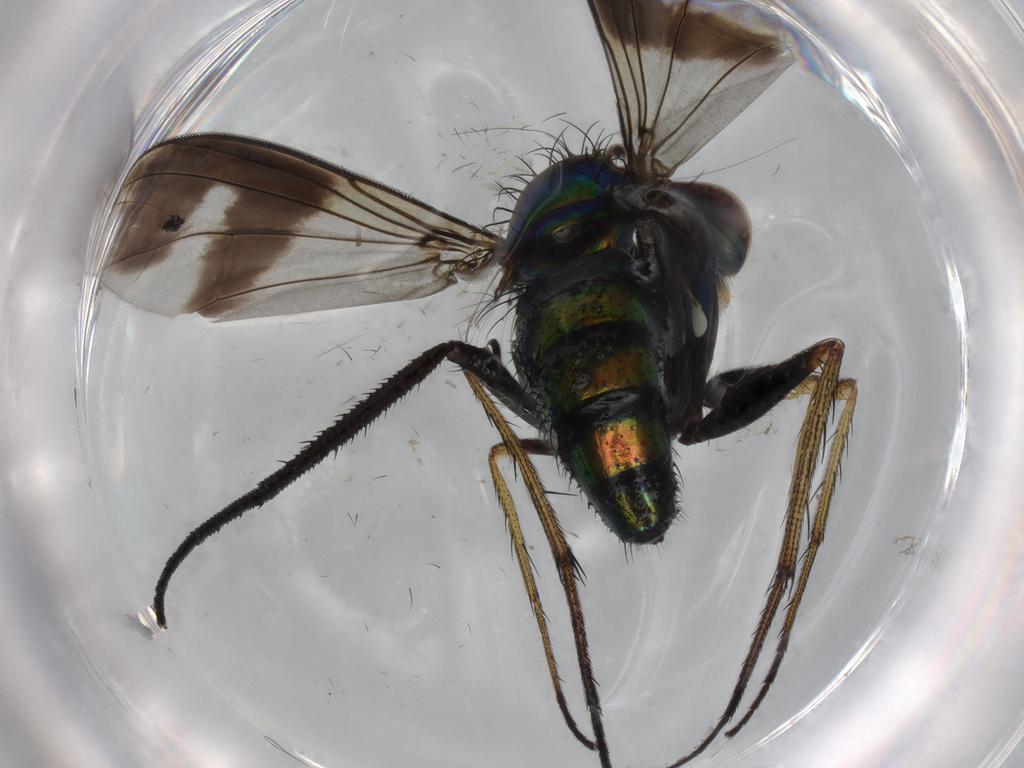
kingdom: Animalia
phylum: Arthropoda
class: Insecta
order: Diptera
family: Dolichopodidae
